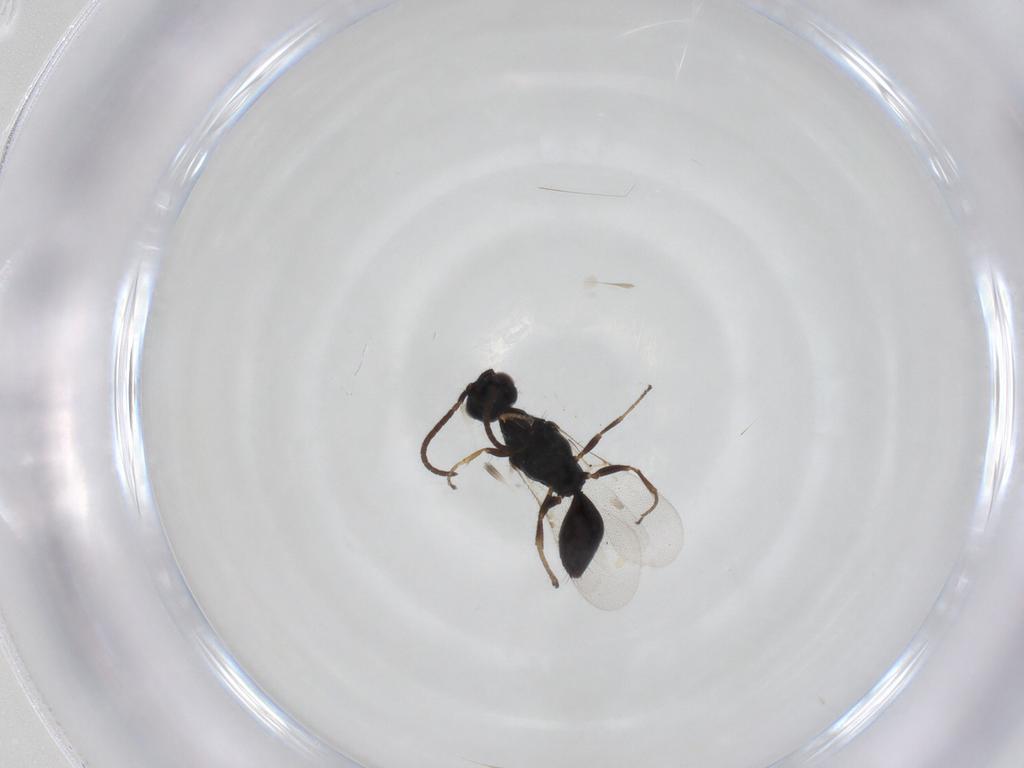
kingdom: Animalia
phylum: Arthropoda
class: Insecta
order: Hymenoptera
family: Bethylidae
